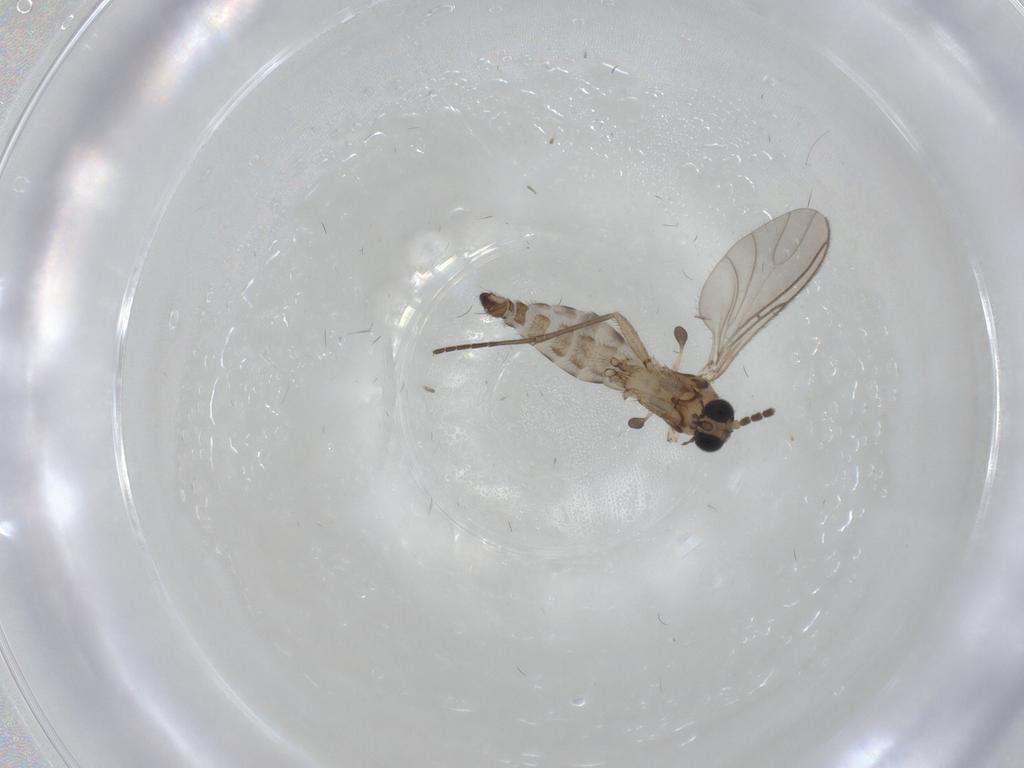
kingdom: Animalia
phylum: Arthropoda
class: Insecta
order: Diptera
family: Sciaridae
